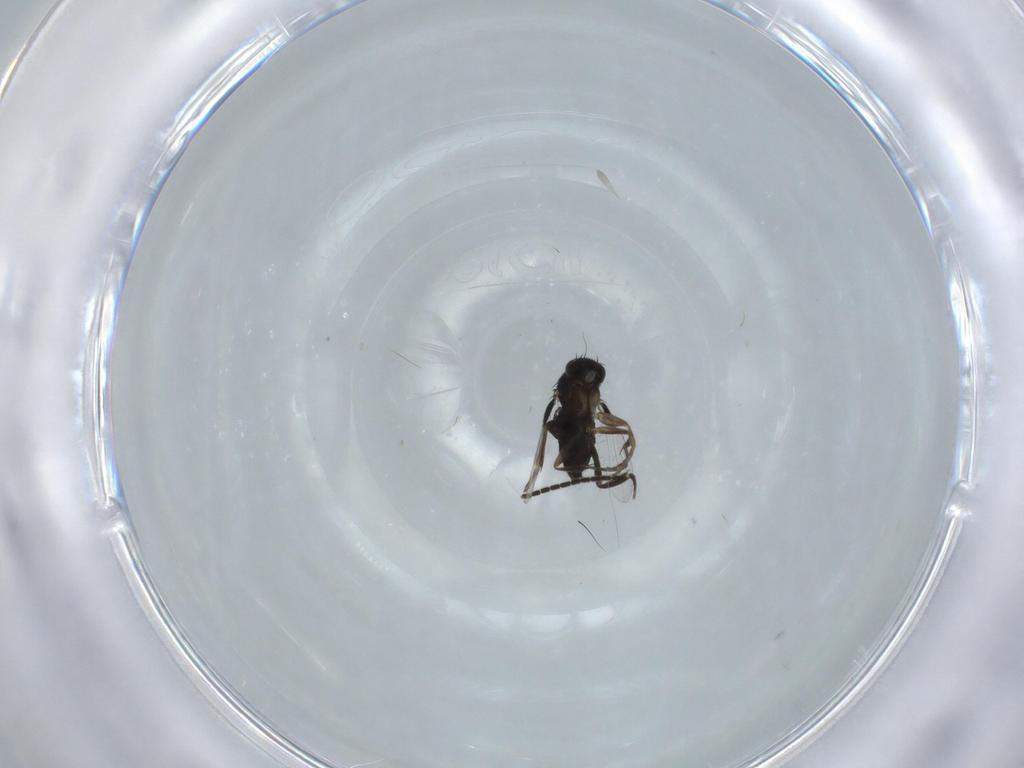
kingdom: Animalia
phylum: Arthropoda
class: Insecta
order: Diptera
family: Phoridae
